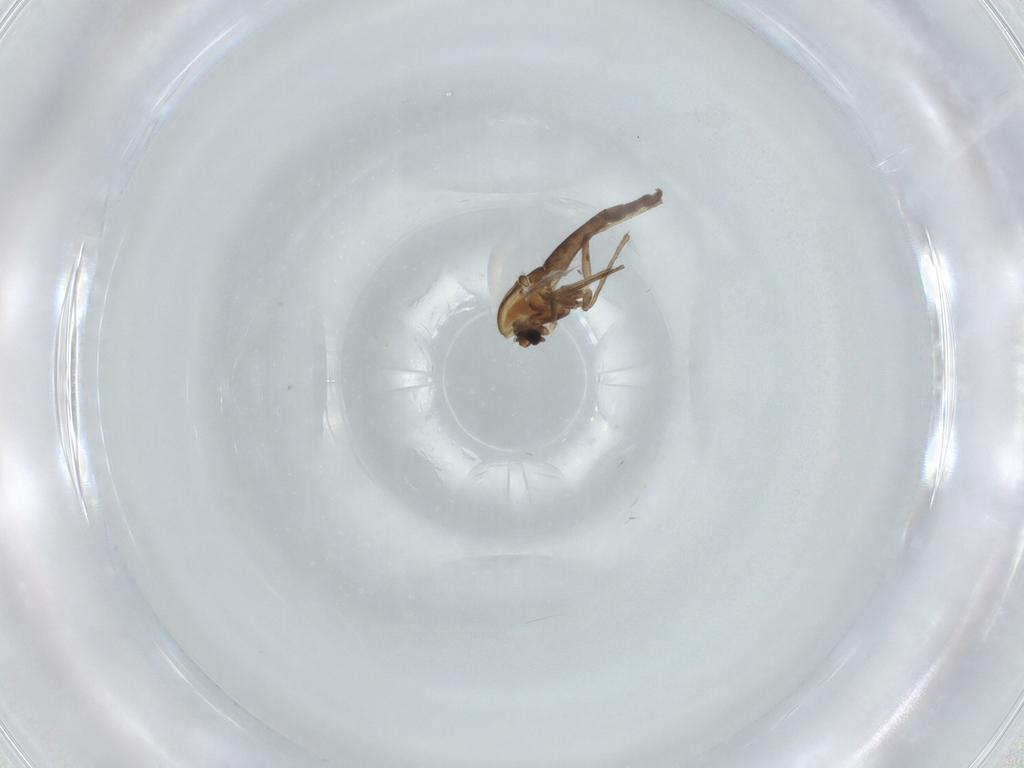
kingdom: Animalia
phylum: Arthropoda
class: Insecta
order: Diptera
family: Chironomidae
